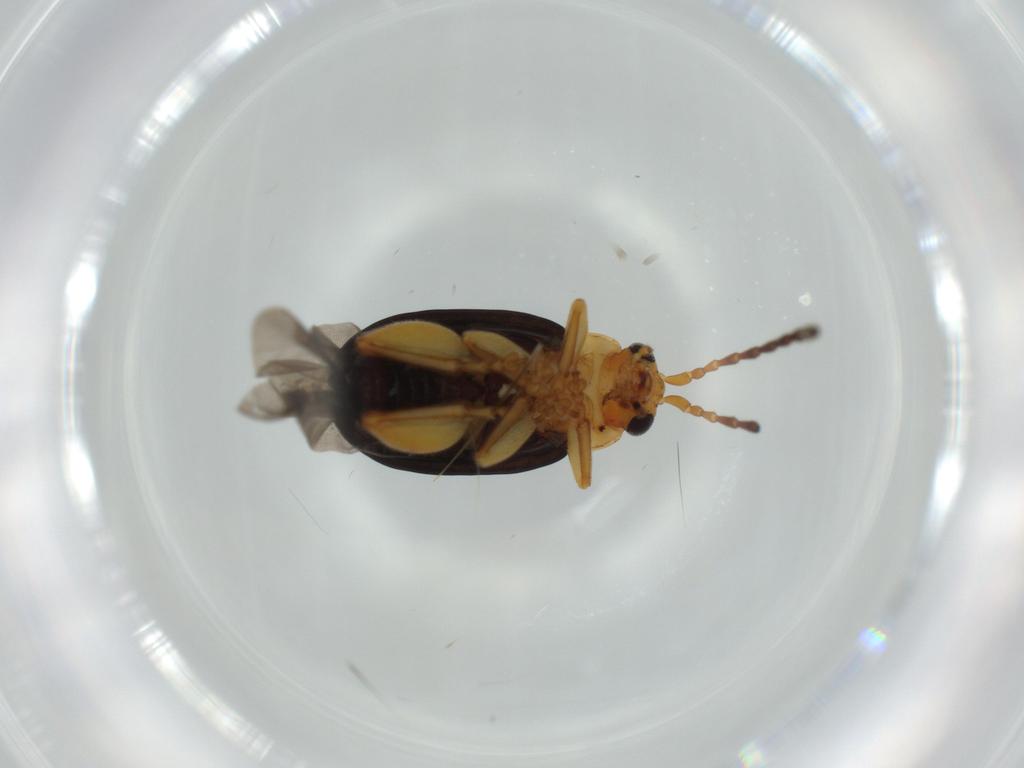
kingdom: Animalia
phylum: Arthropoda
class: Insecta
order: Coleoptera
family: Chrysomelidae
